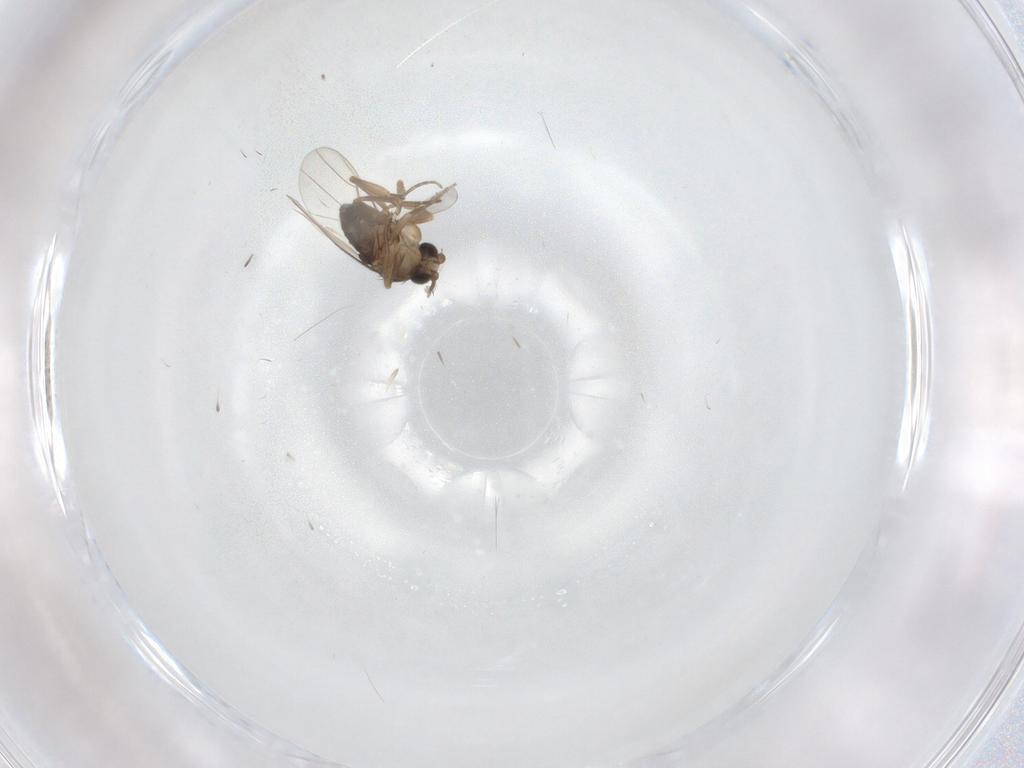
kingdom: Animalia
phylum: Arthropoda
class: Insecta
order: Diptera
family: Phoridae
